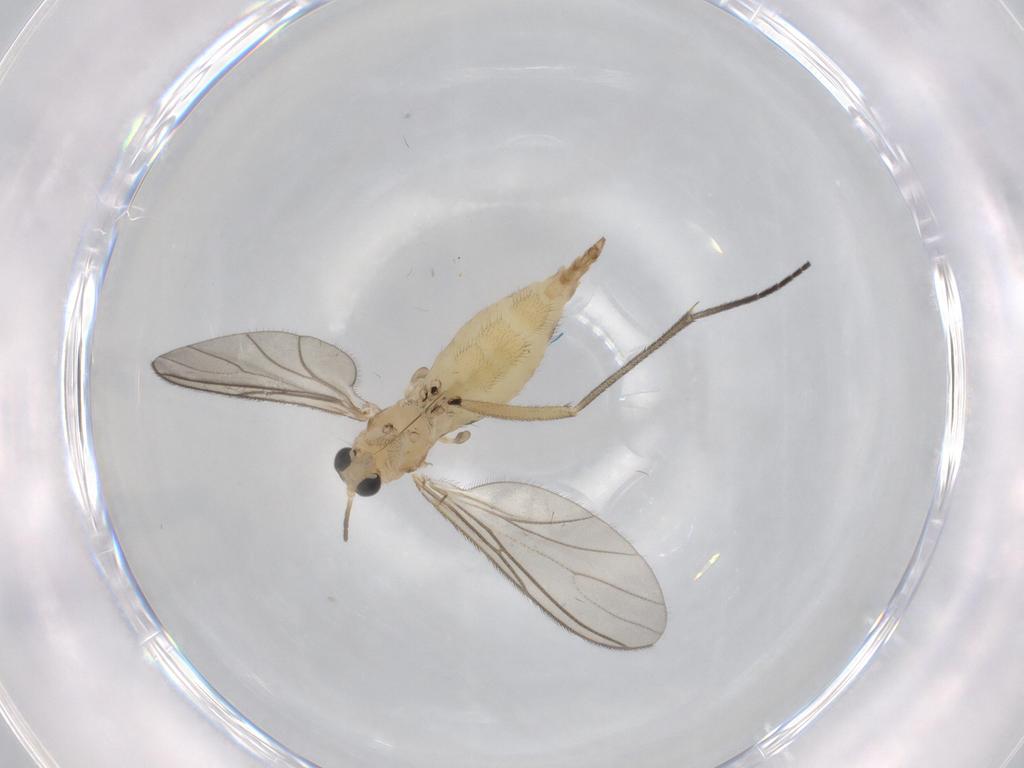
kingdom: Animalia
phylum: Arthropoda
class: Insecta
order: Diptera
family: Sciaridae
